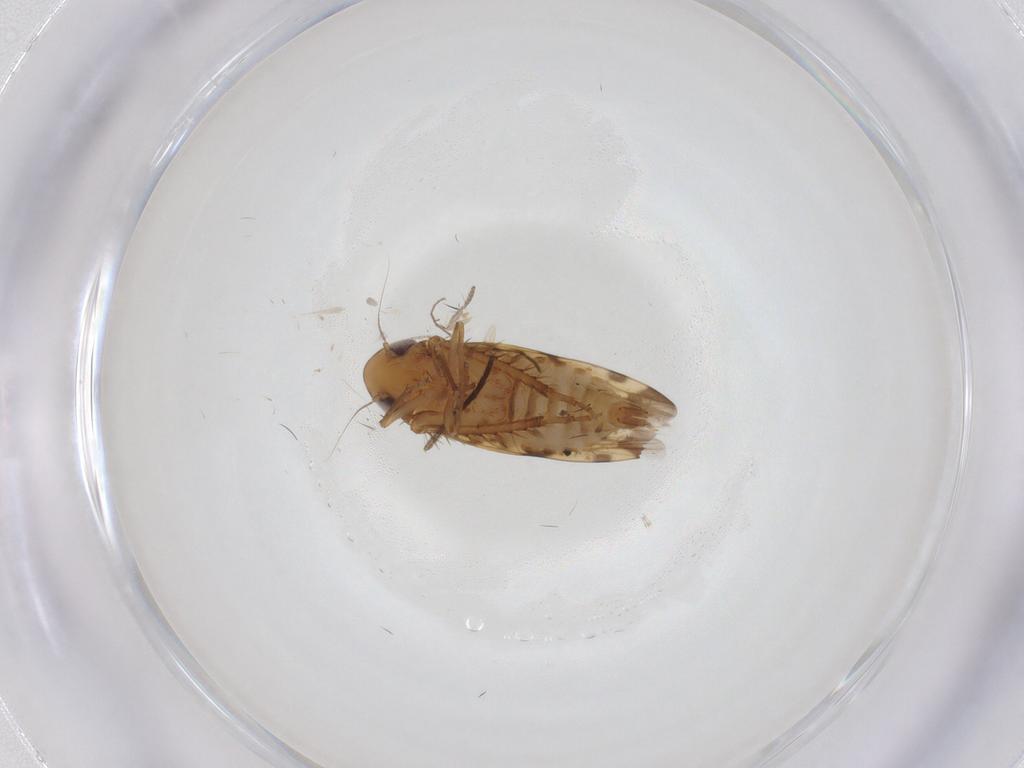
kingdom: Animalia
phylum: Arthropoda
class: Insecta
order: Hemiptera
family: Cicadellidae
